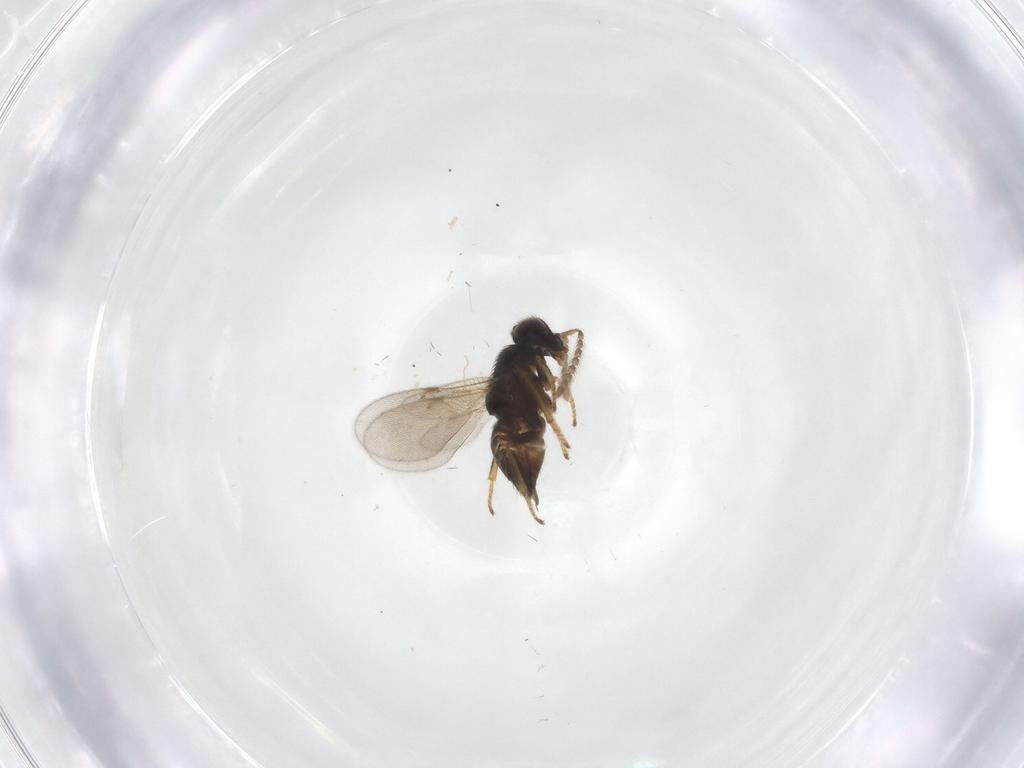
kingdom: Animalia
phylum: Arthropoda
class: Insecta
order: Hymenoptera
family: Encyrtidae
